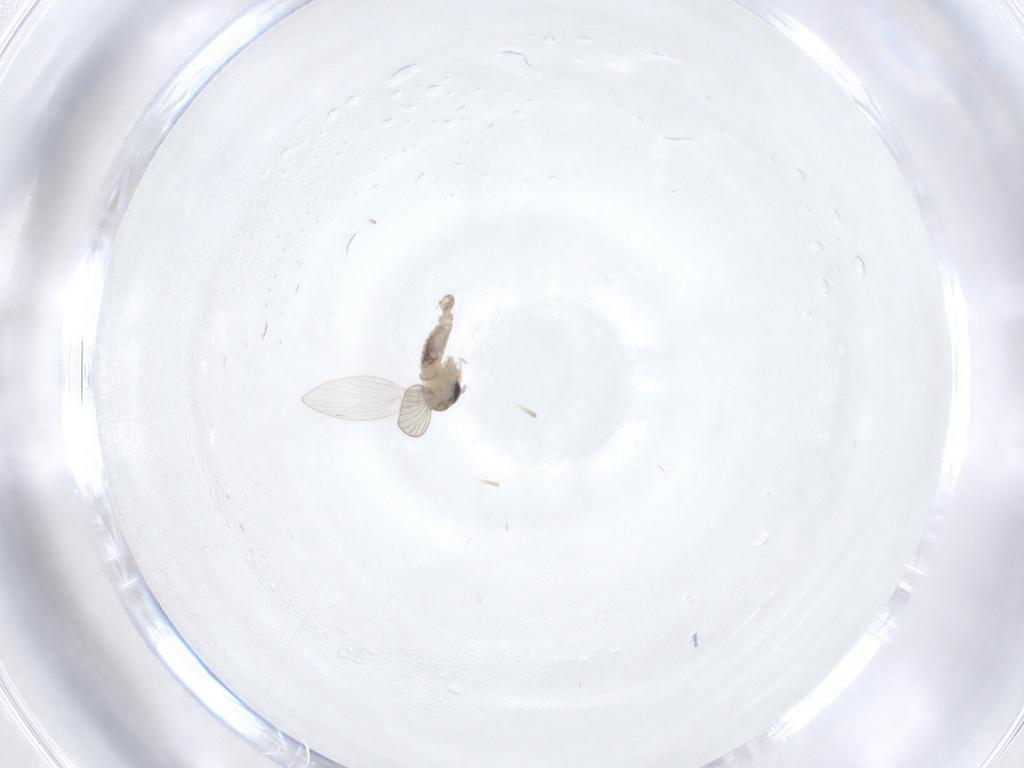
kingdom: Animalia
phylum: Arthropoda
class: Insecta
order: Diptera
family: Psychodidae
